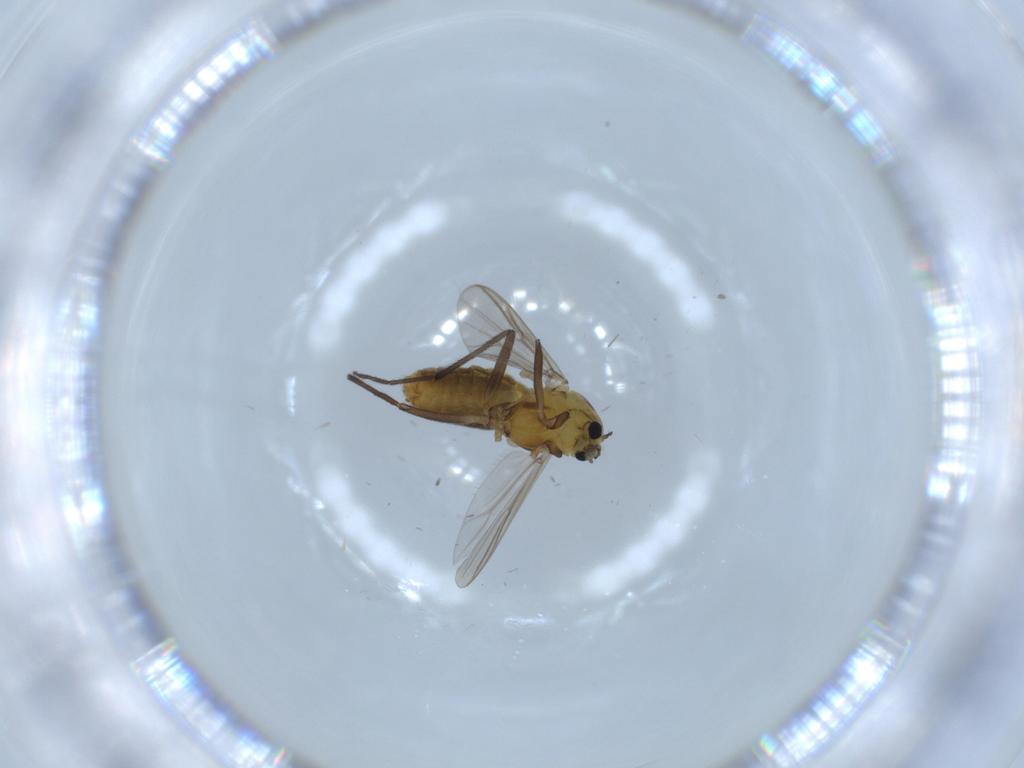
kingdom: Animalia
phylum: Arthropoda
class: Insecta
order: Diptera
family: Chironomidae
